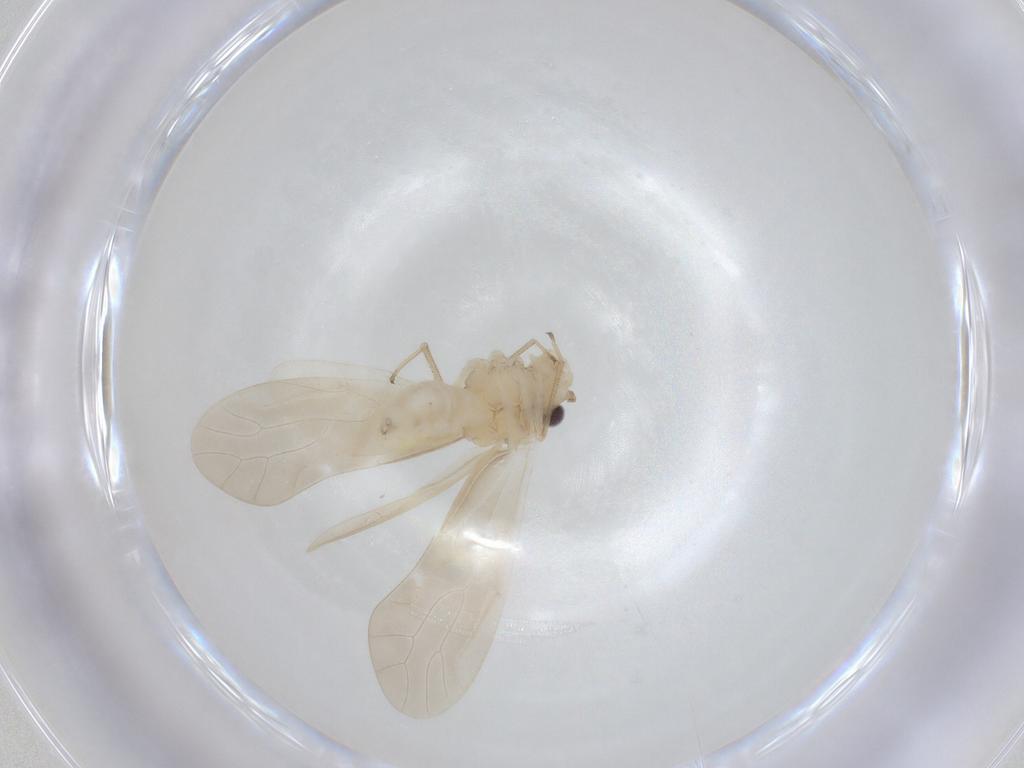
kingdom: Animalia
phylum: Arthropoda
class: Insecta
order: Psocodea
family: Caeciliusidae
